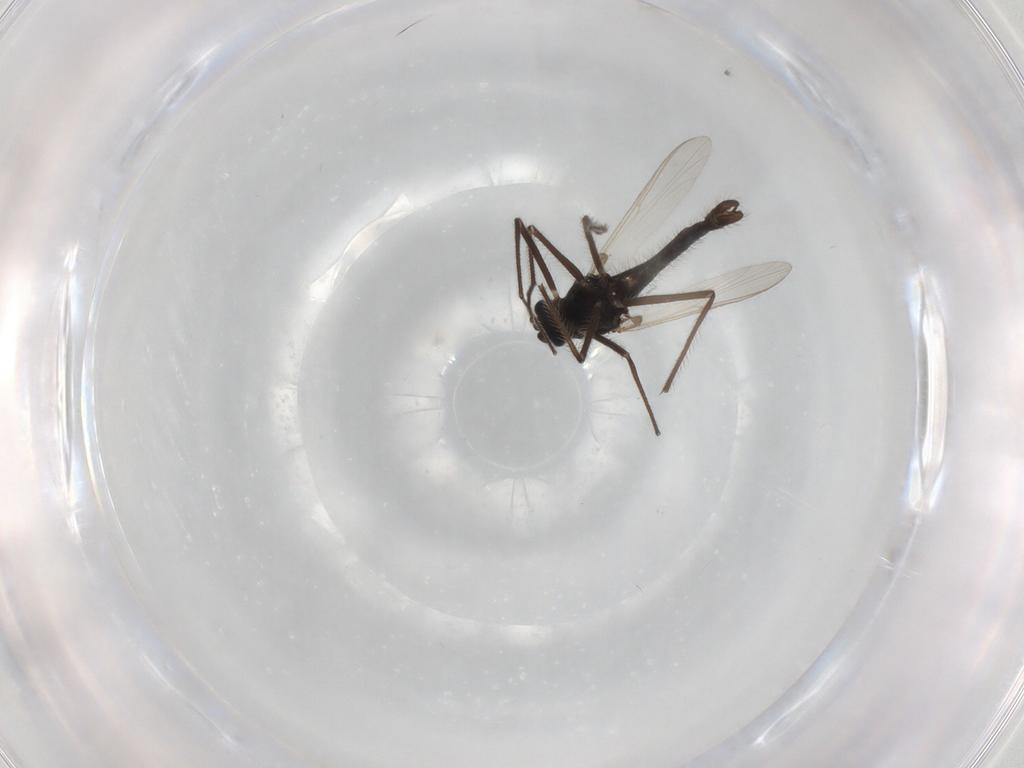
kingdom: Animalia
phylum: Arthropoda
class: Insecta
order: Diptera
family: Chironomidae
